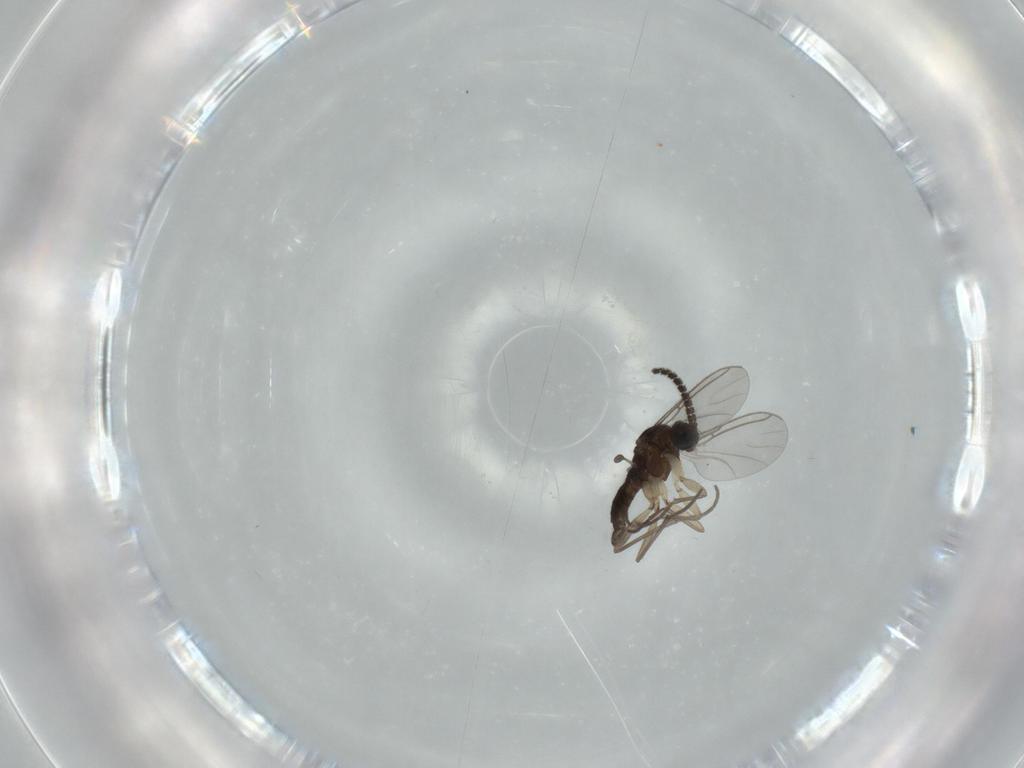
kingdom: Animalia
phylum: Arthropoda
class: Insecta
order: Diptera
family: Sciaridae
